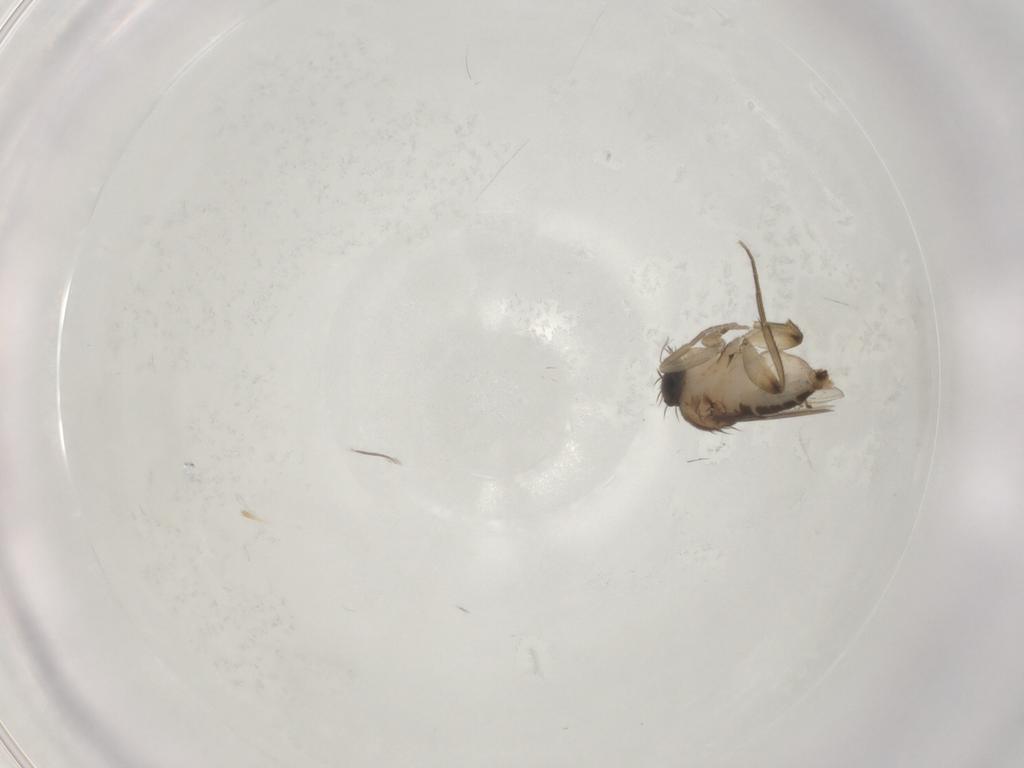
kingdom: Animalia
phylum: Arthropoda
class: Insecta
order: Diptera
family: Phoridae
